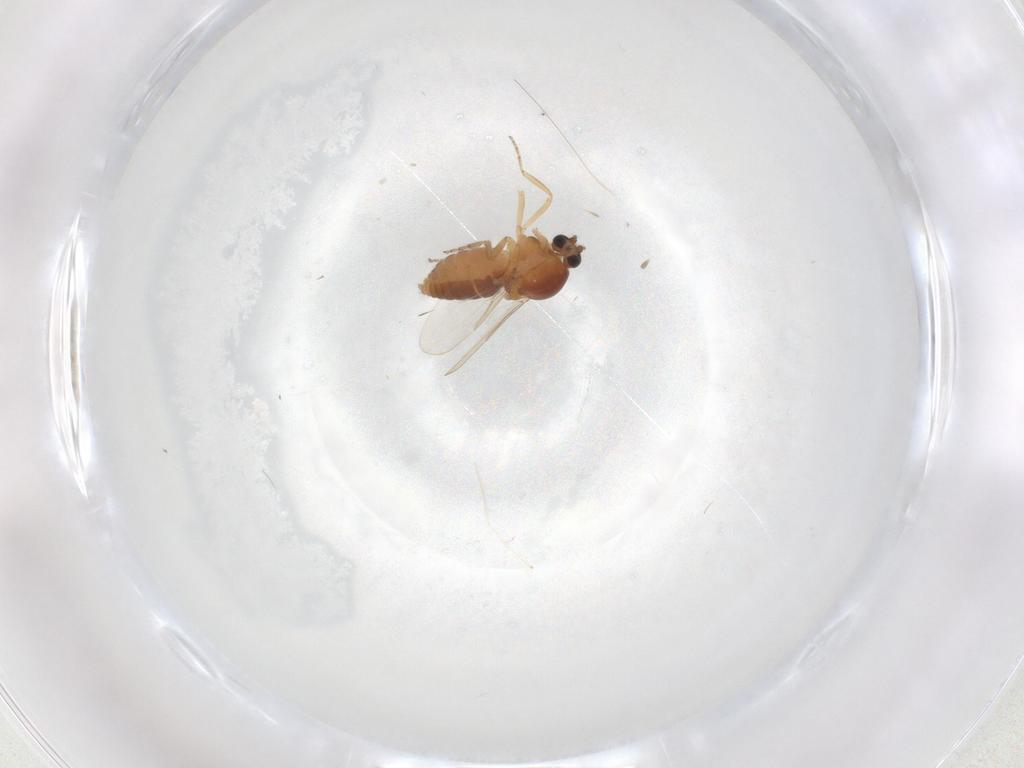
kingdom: Animalia
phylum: Arthropoda
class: Insecta
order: Diptera
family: Ceratopogonidae
